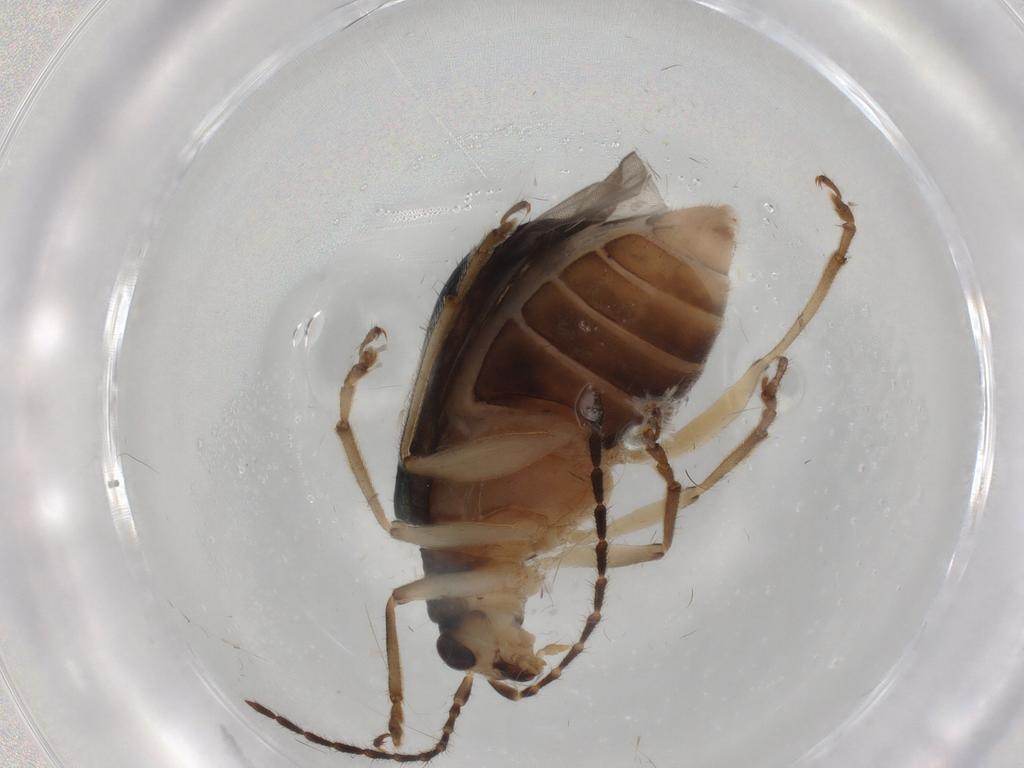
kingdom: Animalia
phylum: Arthropoda
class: Insecta
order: Coleoptera
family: Chrysomelidae
